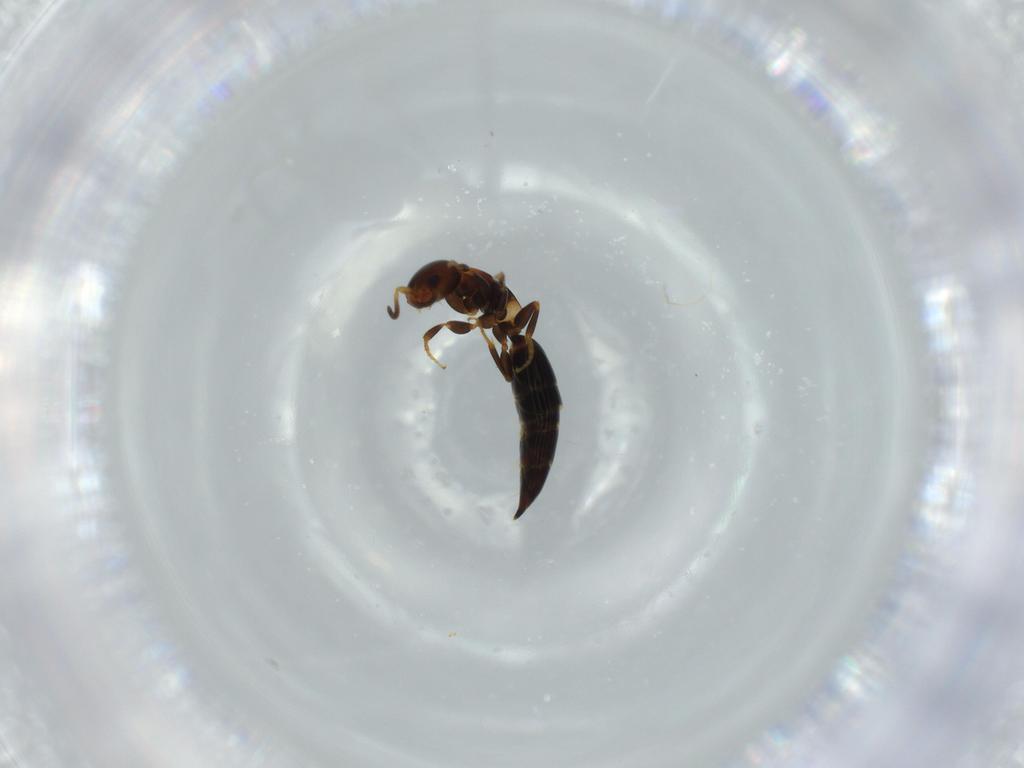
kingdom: Animalia
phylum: Arthropoda
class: Insecta
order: Hymenoptera
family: Bethylidae
